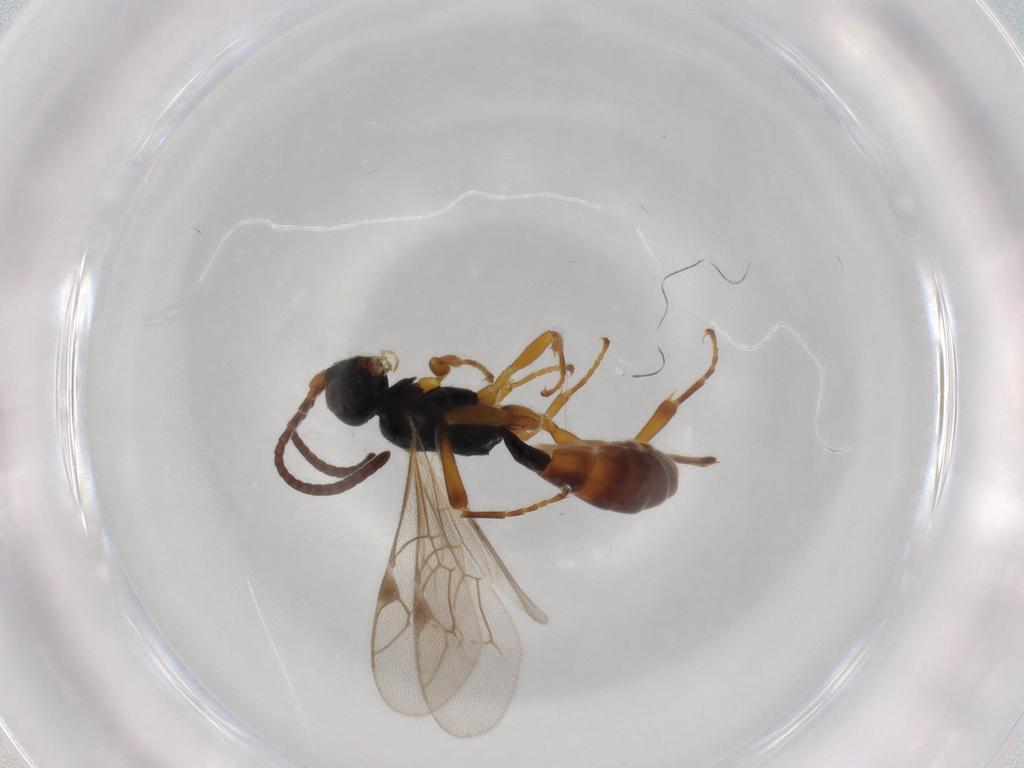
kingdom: Animalia
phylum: Arthropoda
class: Insecta
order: Hymenoptera
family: Ichneumonidae
